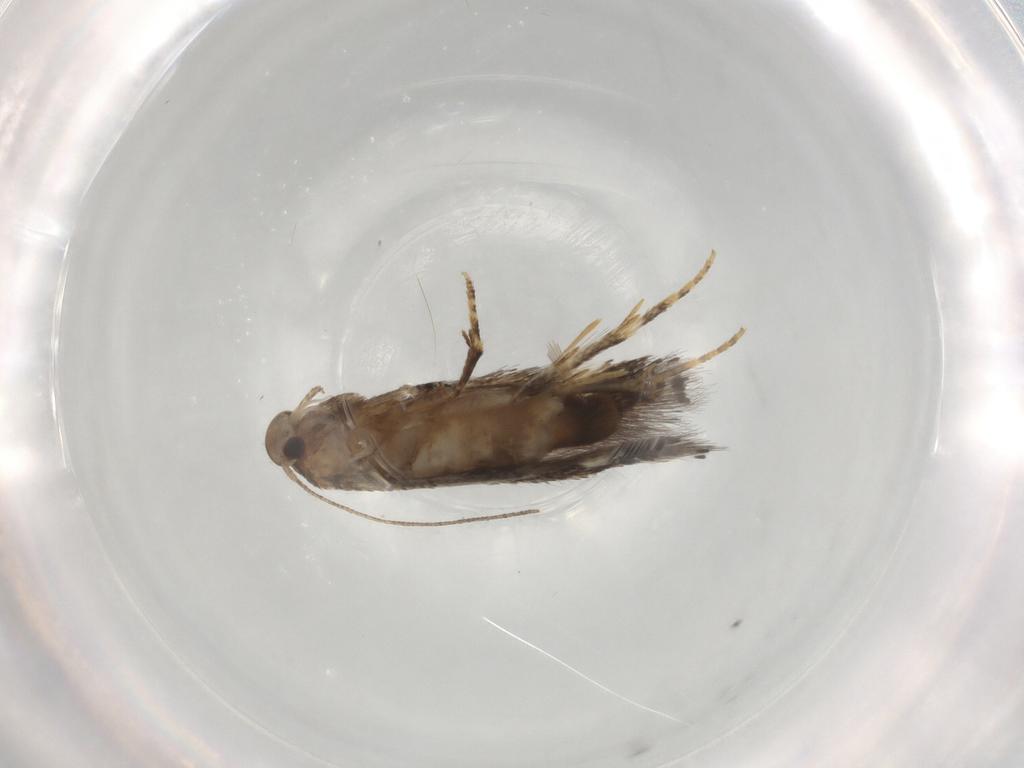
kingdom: Animalia
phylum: Arthropoda
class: Insecta
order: Lepidoptera
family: Elachistidae
